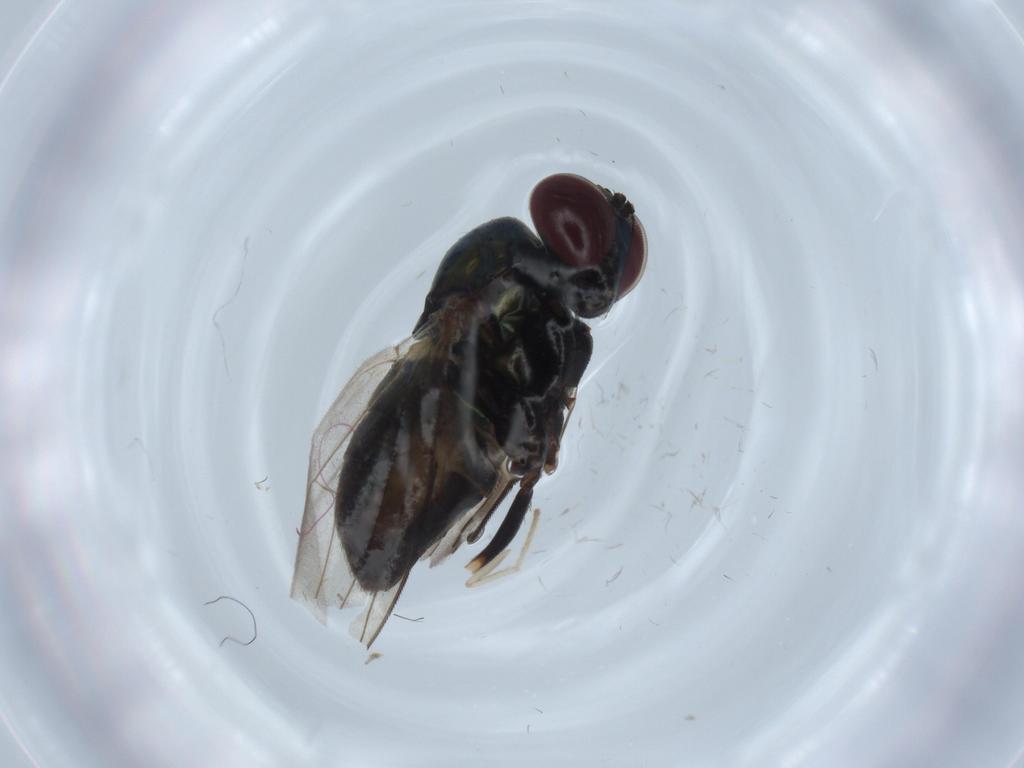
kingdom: Animalia
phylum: Arthropoda
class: Insecta
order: Diptera
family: Dolichopodidae
